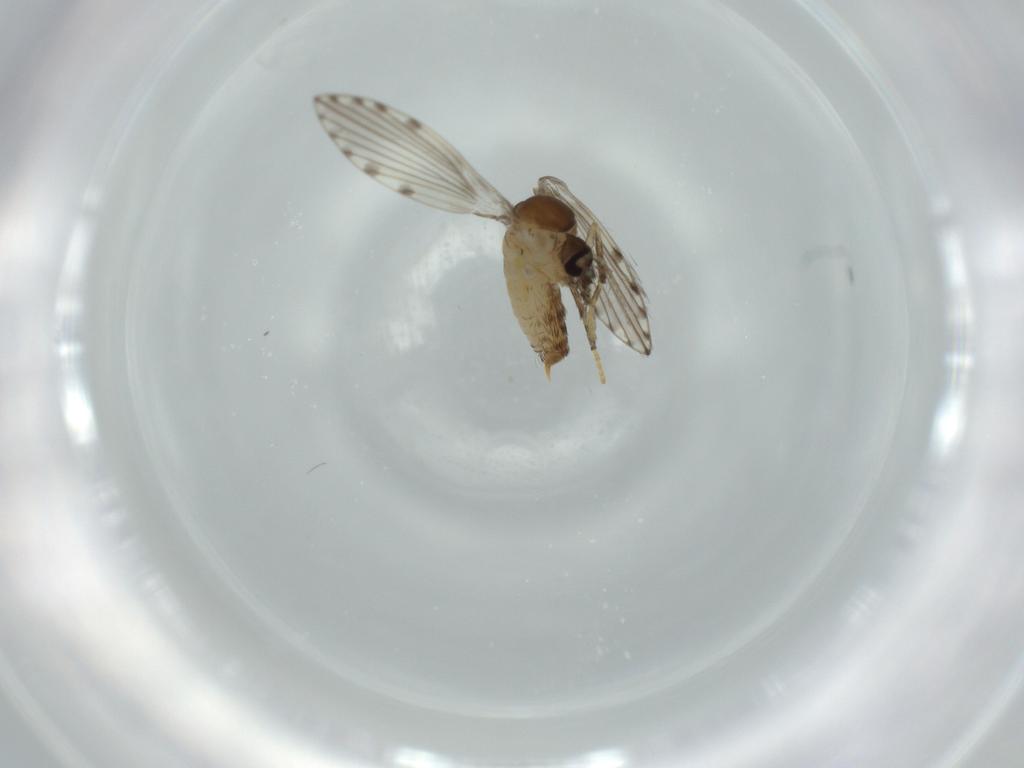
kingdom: Animalia
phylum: Arthropoda
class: Insecta
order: Diptera
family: Psychodidae
